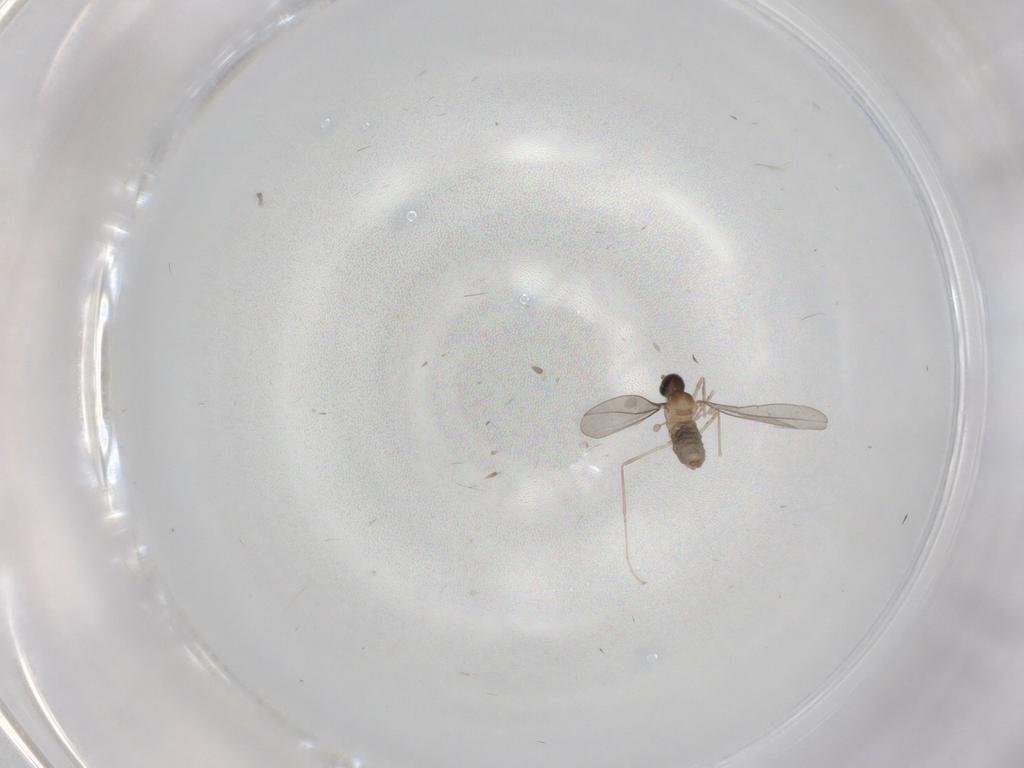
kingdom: Animalia
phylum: Arthropoda
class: Insecta
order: Diptera
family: Cecidomyiidae
